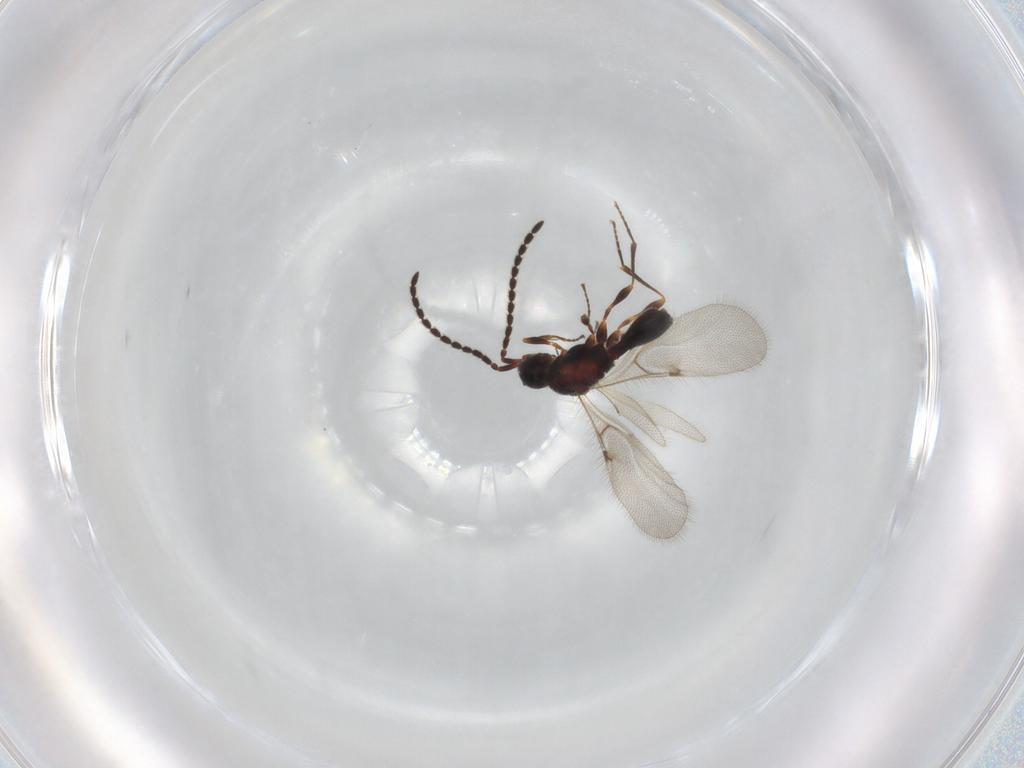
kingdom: Animalia
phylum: Arthropoda
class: Insecta
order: Hymenoptera
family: Diapriidae
